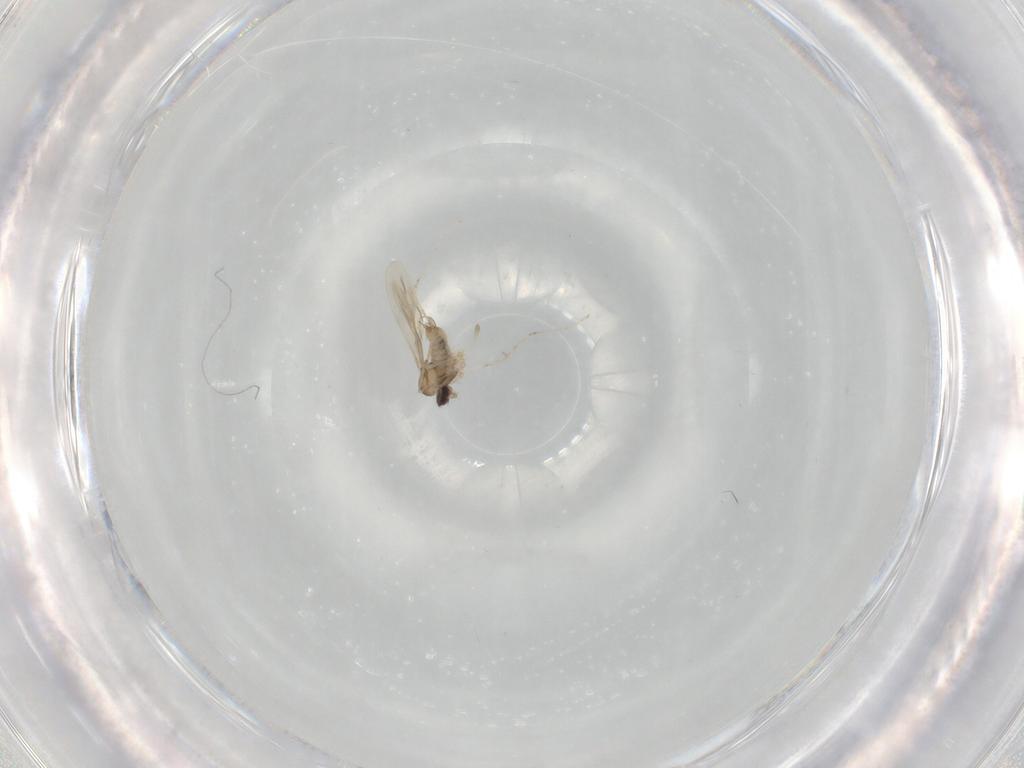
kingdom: Animalia
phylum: Arthropoda
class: Insecta
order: Diptera
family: Cecidomyiidae
